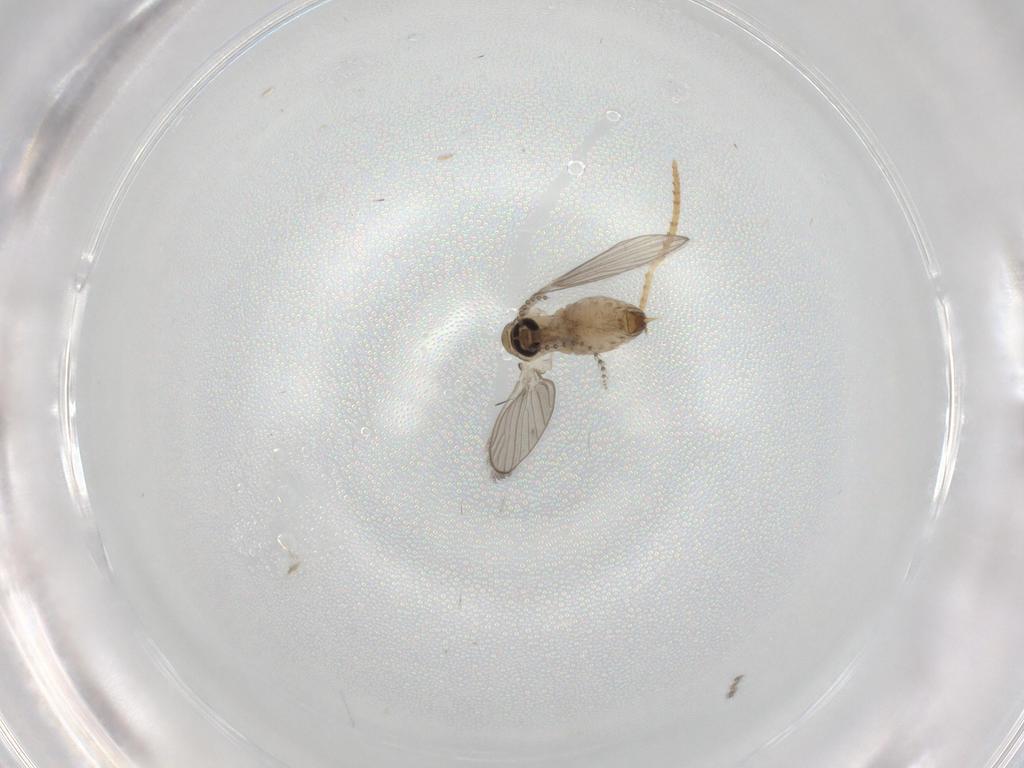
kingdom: Animalia
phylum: Arthropoda
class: Insecta
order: Diptera
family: Psychodidae
